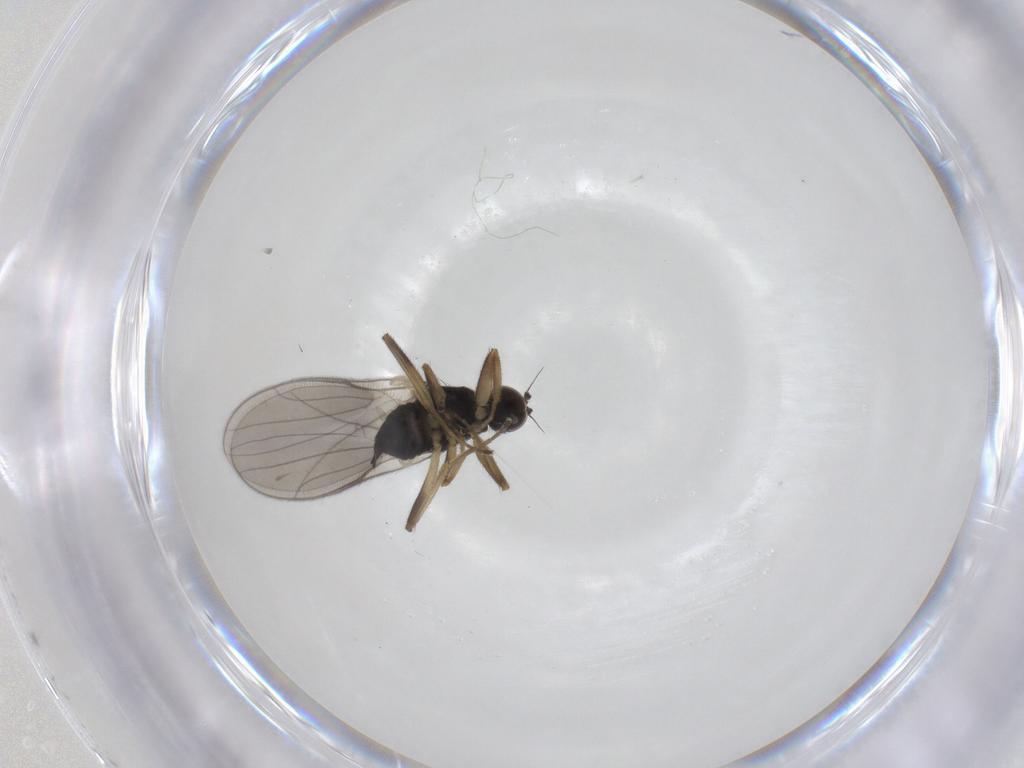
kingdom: Animalia
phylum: Arthropoda
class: Insecta
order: Diptera
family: Hybotidae
